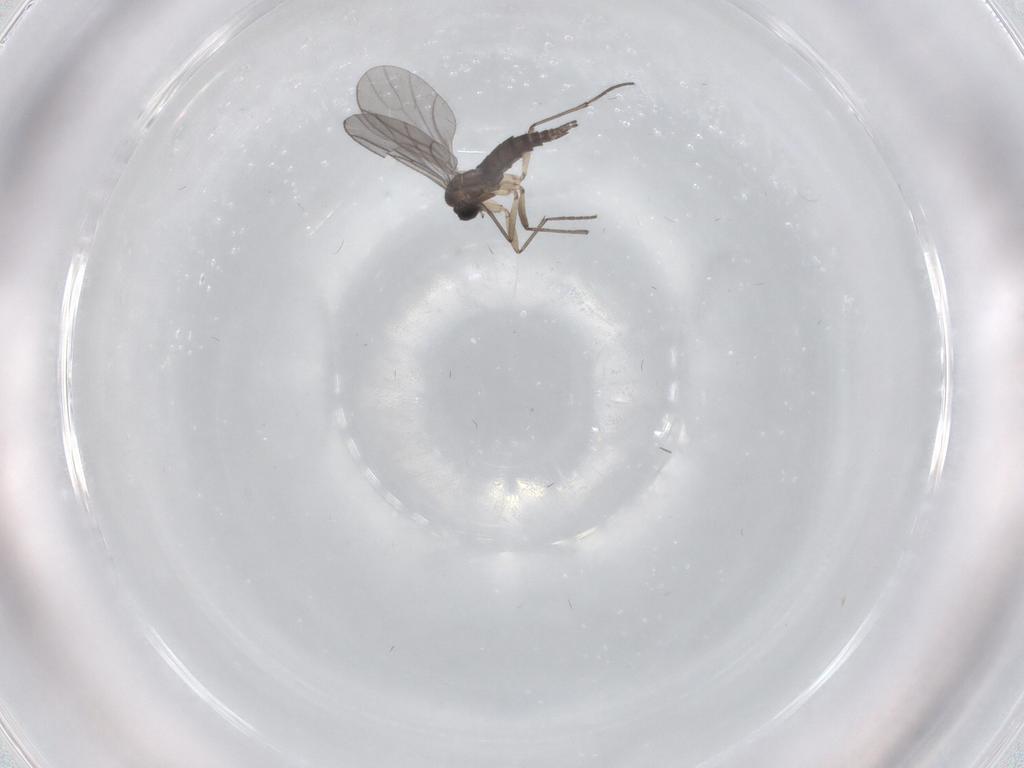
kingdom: Animalia
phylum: Arthropoda
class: Insecta
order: Diptera
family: Sciaridae
